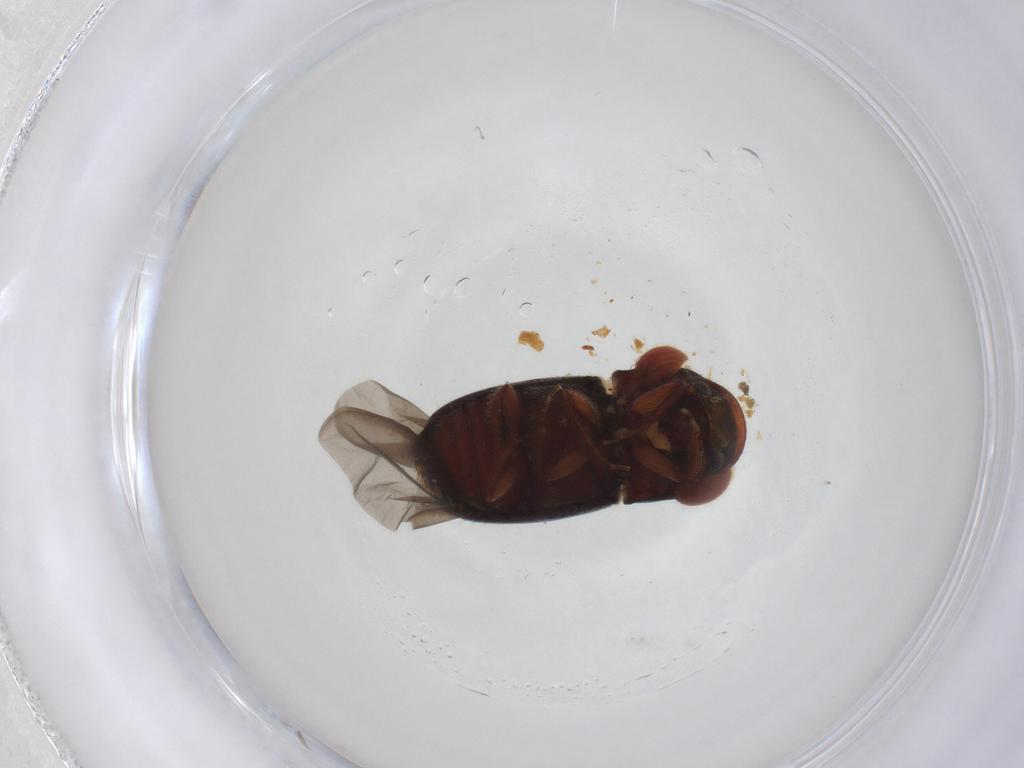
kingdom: Animalia
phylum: Arthropoda
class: Insecta
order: Coleoptera
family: Curculionidae
